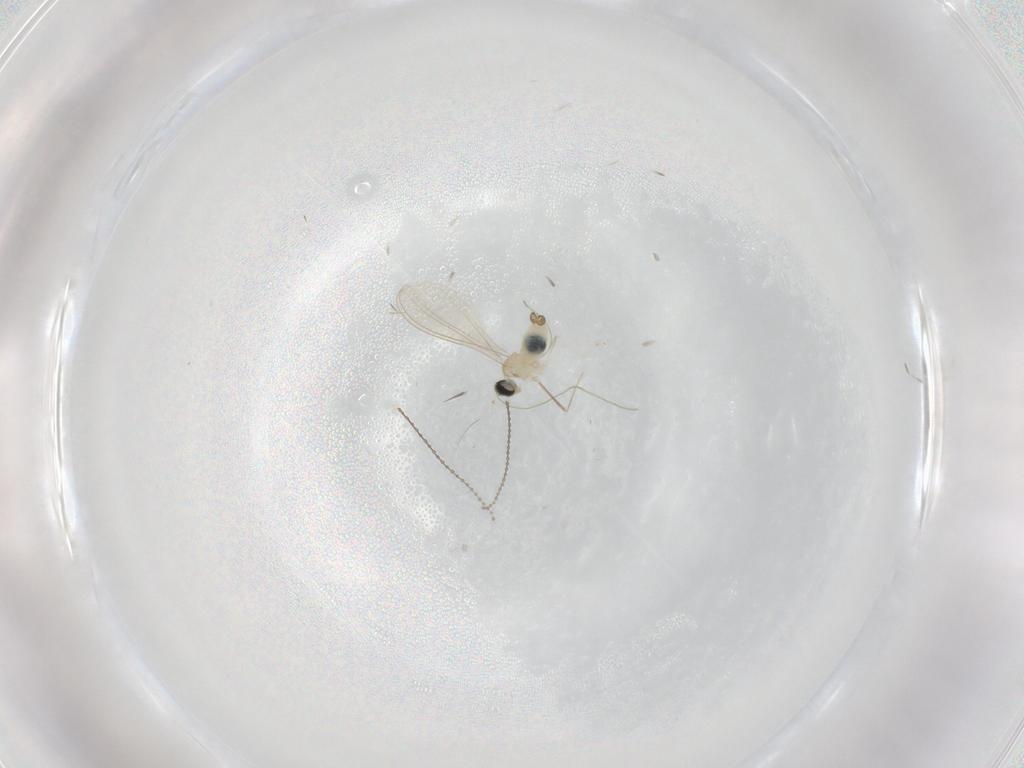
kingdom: Animalia
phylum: Arthropoda
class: Insecta
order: Diptera
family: Cecidomyiidae
